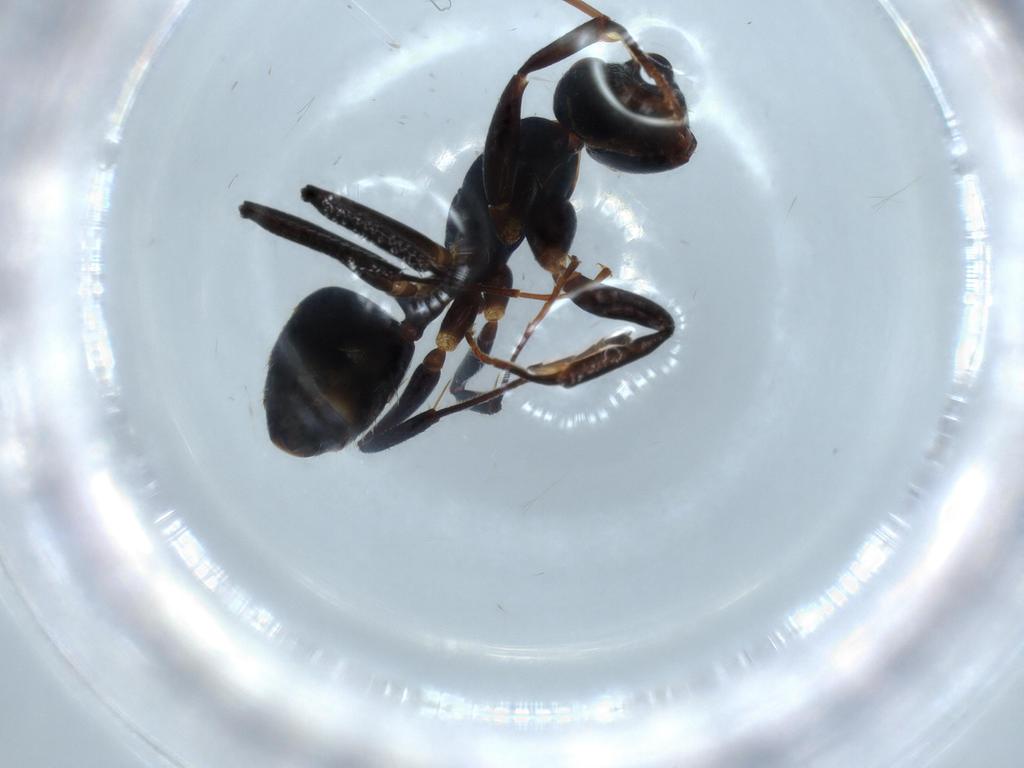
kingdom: Animalia
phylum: Arthropoda
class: Insecta
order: Hymenoptera
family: Formicidae
